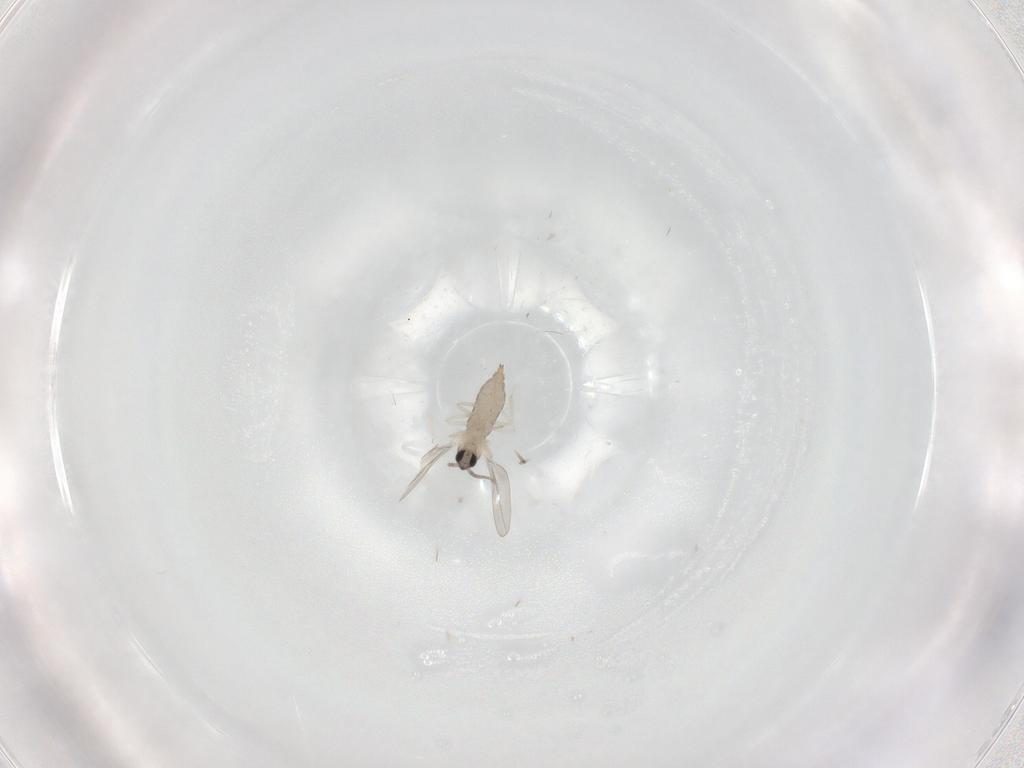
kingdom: Animalia
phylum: Arthropoda
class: Insecta
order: Diptera
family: Cecidomyiidae
